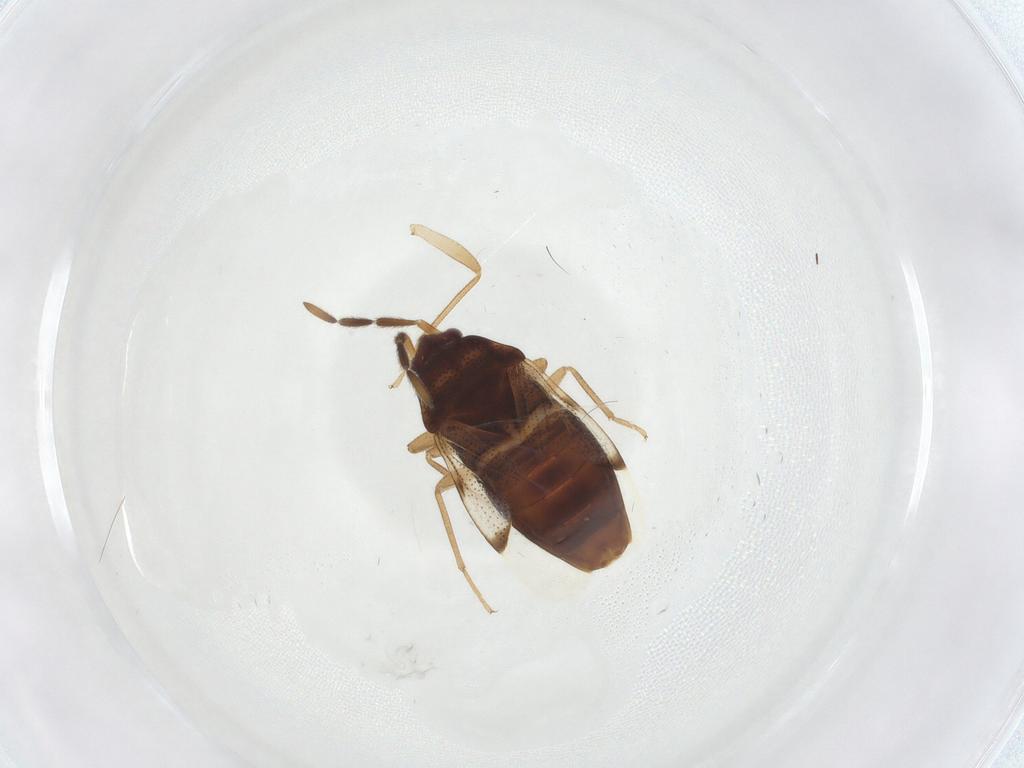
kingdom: Animalia
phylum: Arthropoda
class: Insecta
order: Hemiptera
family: Rhyparochromidae
